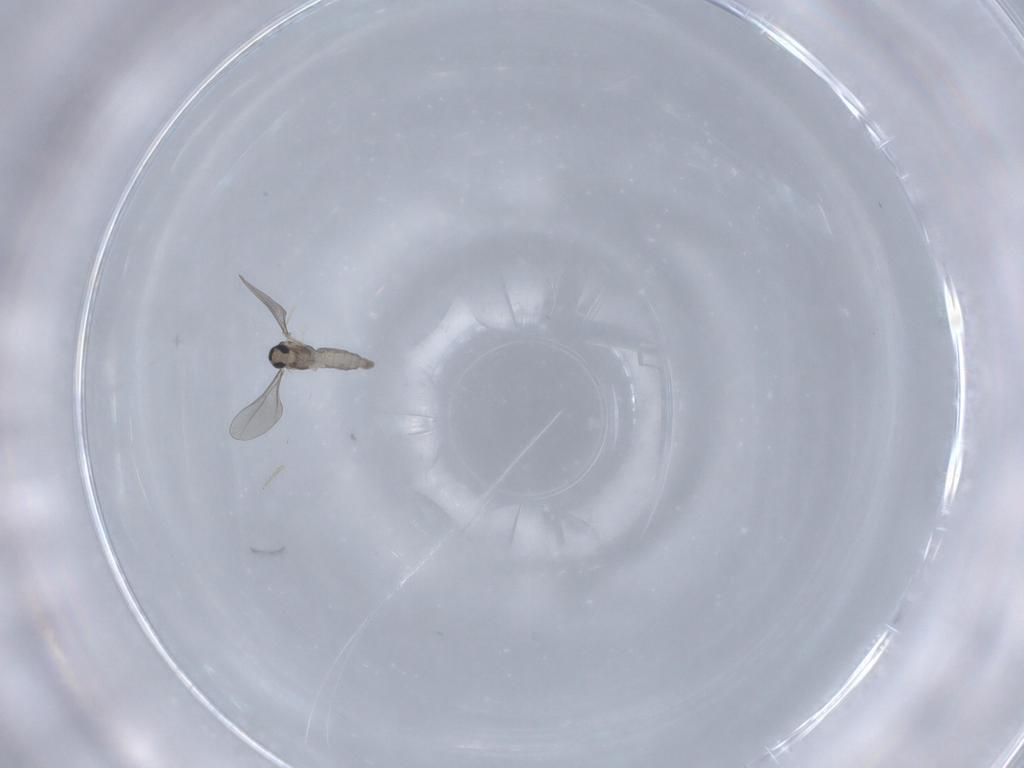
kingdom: Animalia
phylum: Arthropoda
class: Insecta
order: Diptera
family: Cecidomyiidae
